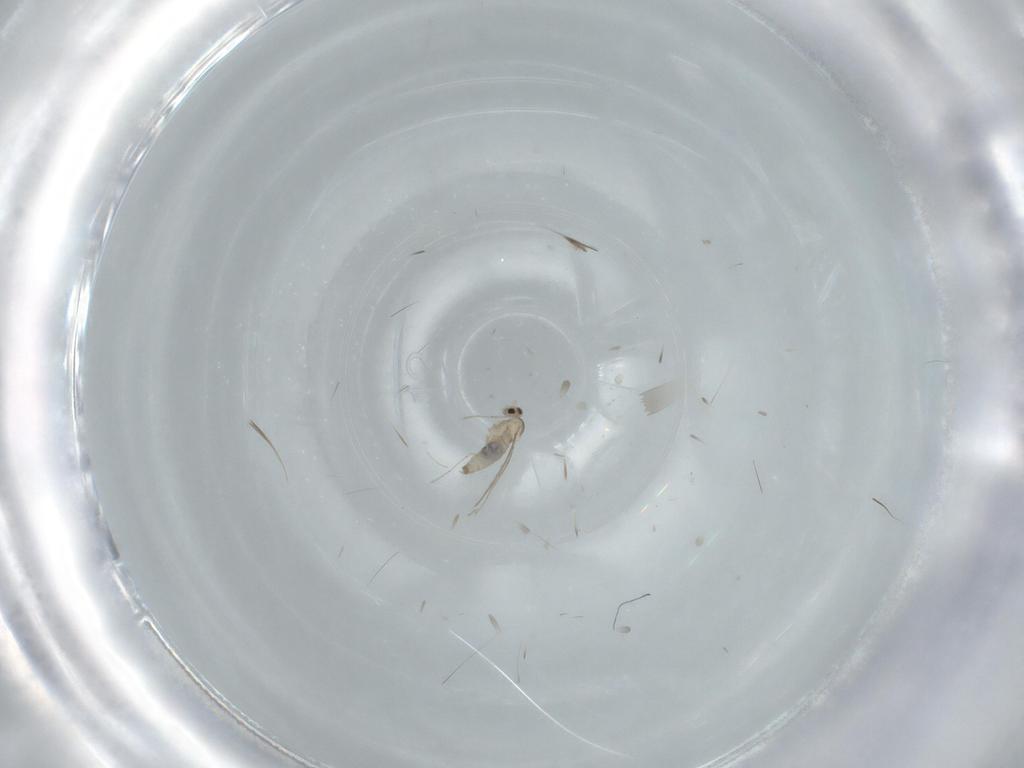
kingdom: Animalia
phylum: Arthropoda
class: Insecta
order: Diptera
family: Cecidomyiidae
